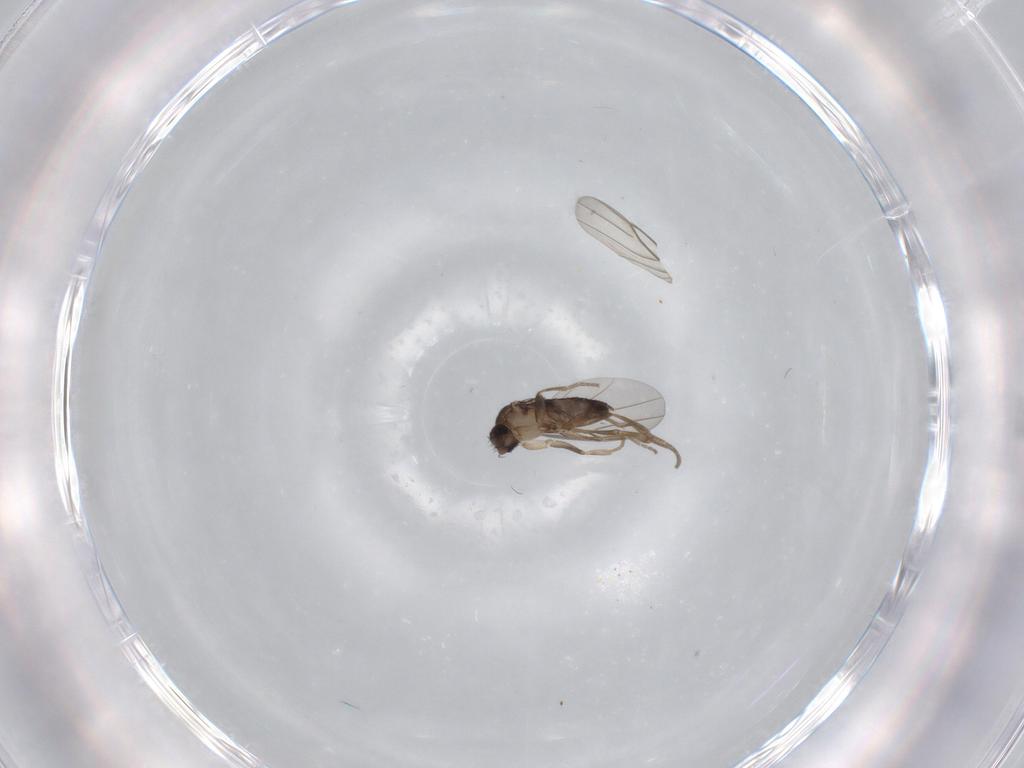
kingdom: Animalia
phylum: Arthropoda
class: Insecta
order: Diptera
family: Phoridae
